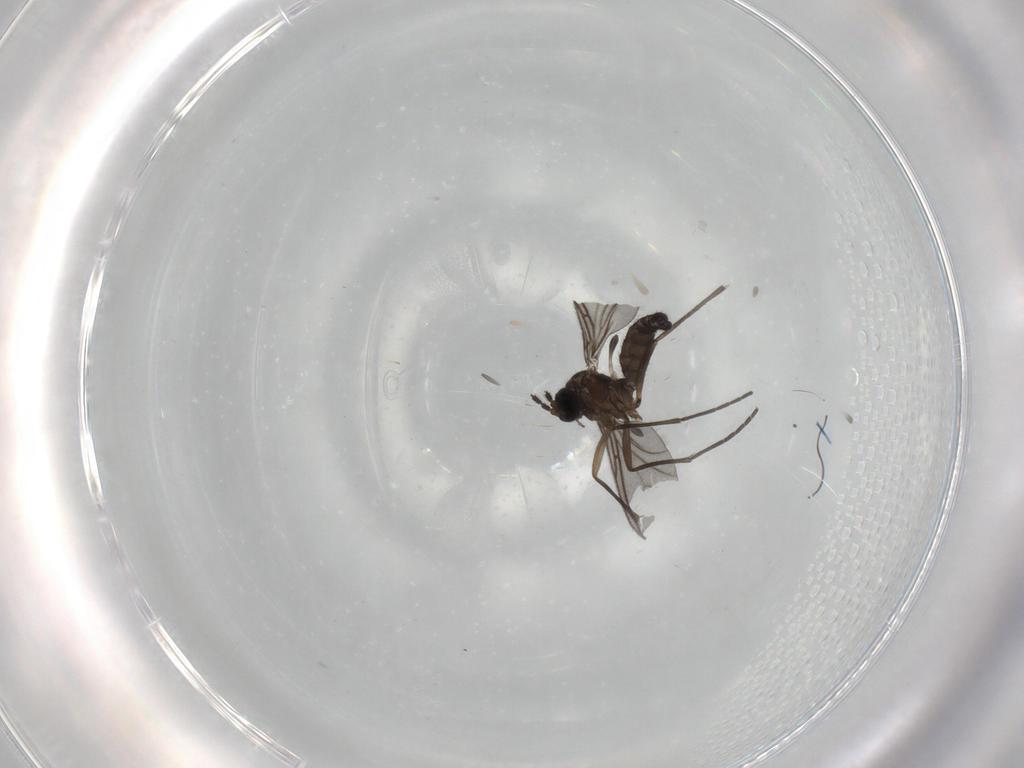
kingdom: Animalia
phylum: Arthropoda
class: Insecta
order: Diptera
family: Sciaridae
